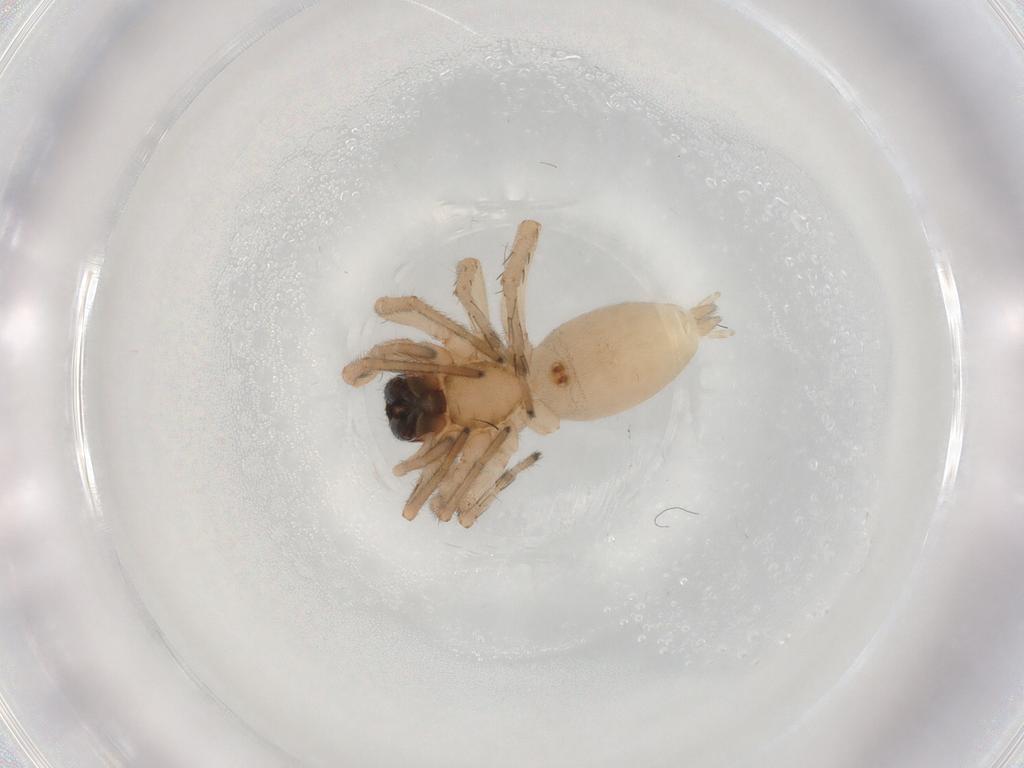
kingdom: Animalia
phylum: Arthropoda
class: Arachnida
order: Araneae
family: Anyphaenidae
